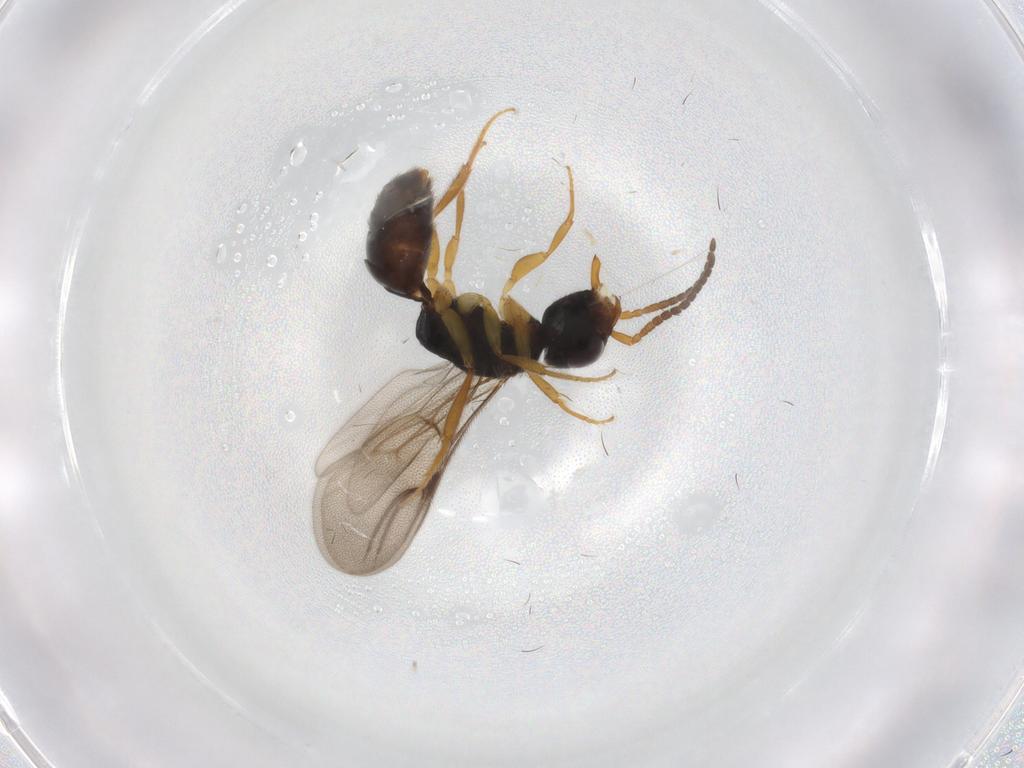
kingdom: Animalia
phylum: Arthropoda
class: Insecta
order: Hymenoptera
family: Bethylidae
